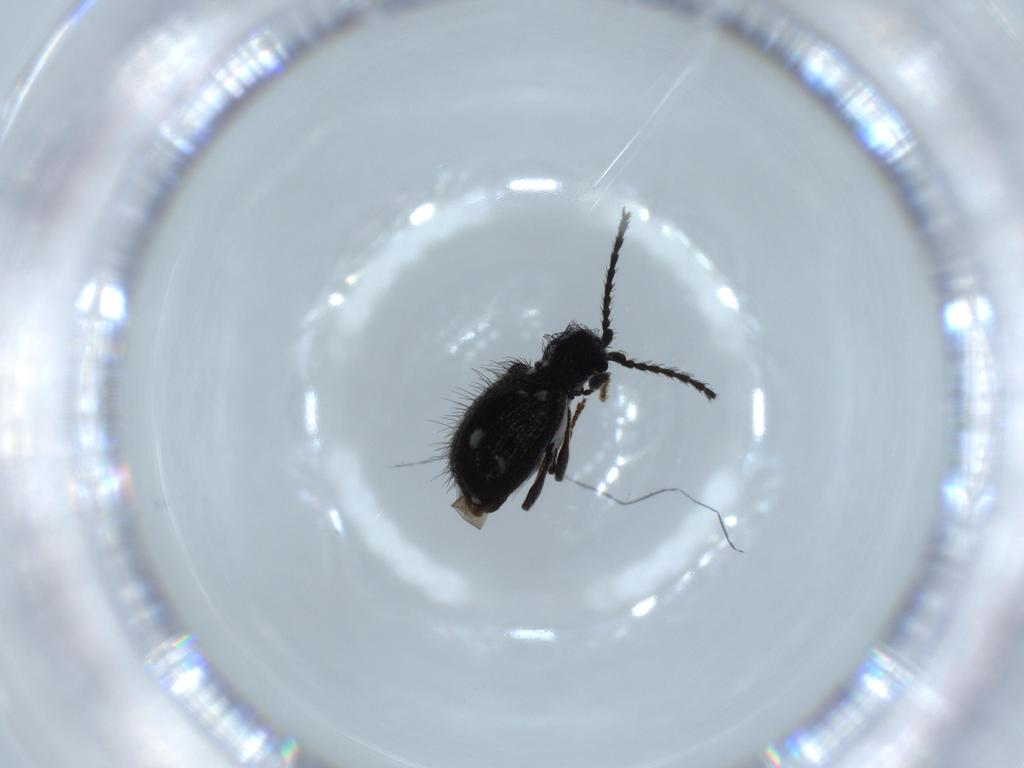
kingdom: Animalia
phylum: Arthropoda
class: Insecta
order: Coleoptera
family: Ptinidae
